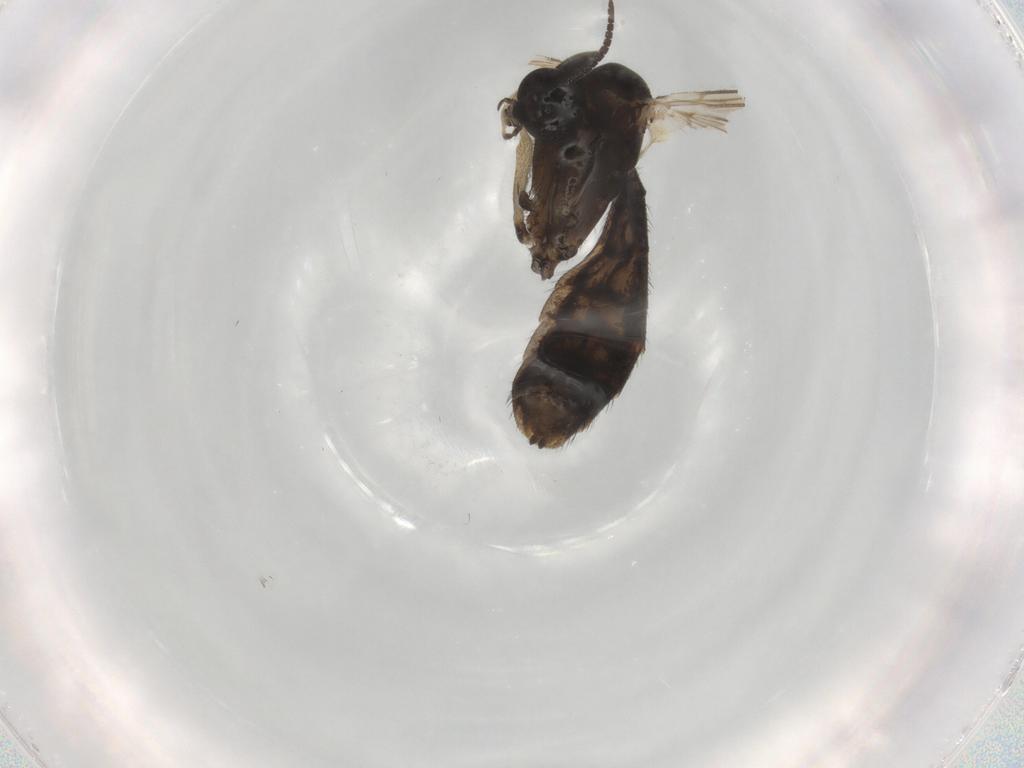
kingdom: Animalia
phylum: Arthropoda
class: Insecta
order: Diptera
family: Keroplatidae
